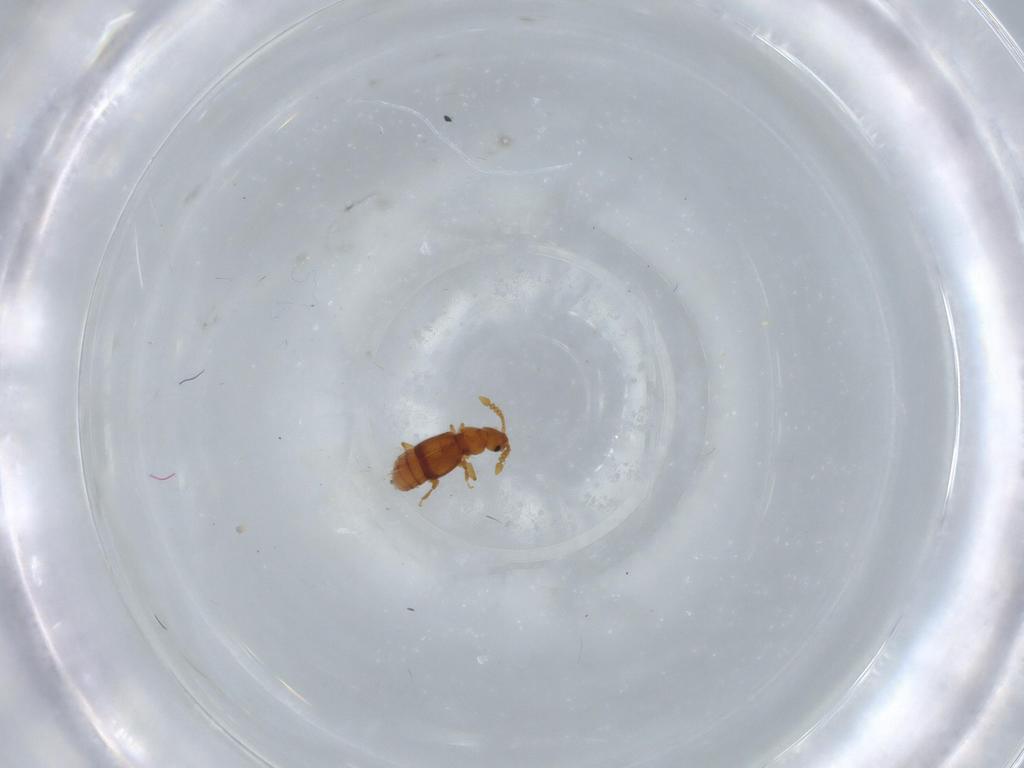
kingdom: Animalia
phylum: Arthropoda
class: Insecta
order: Coleoptera
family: Staphylinidae
